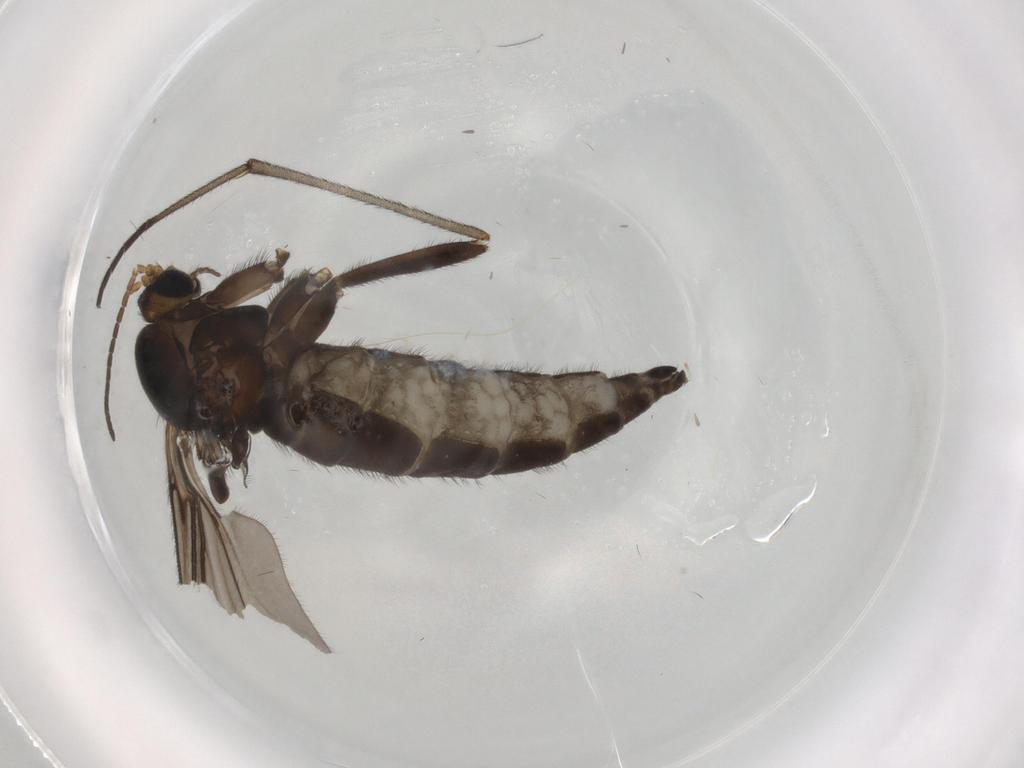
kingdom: Animalia
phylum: Arthropoda
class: Insecta
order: Diptera
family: Sciaridae
